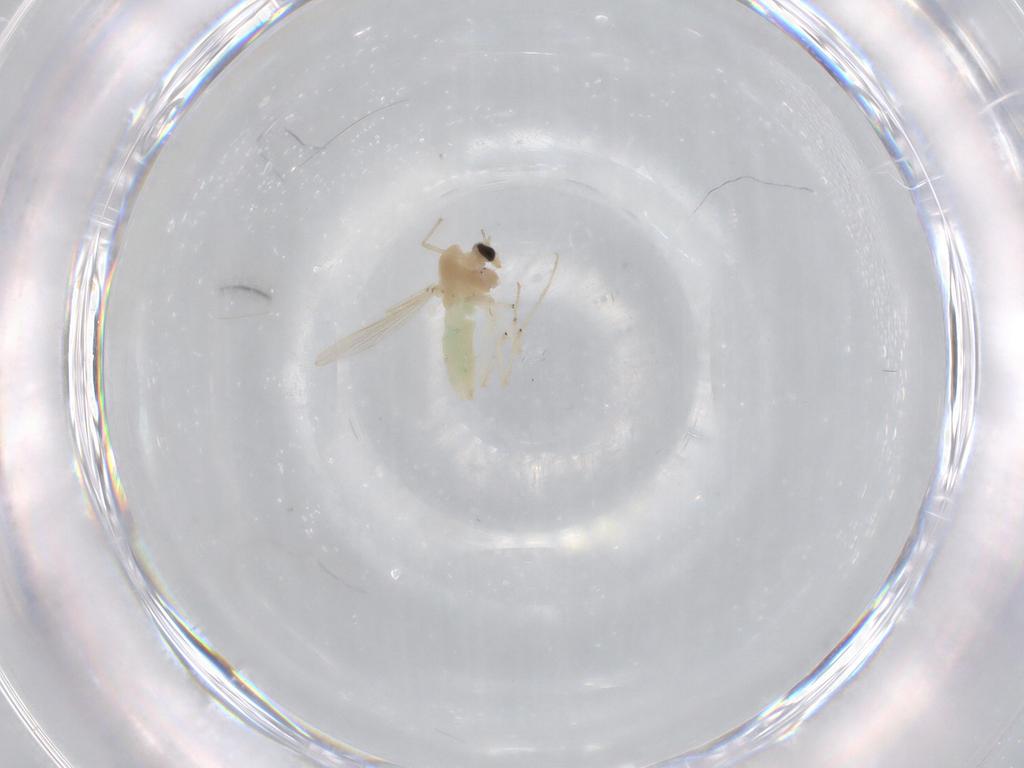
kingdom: Animalia
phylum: Arthropoda
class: Insecta
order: Diptera
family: Chironomidae
